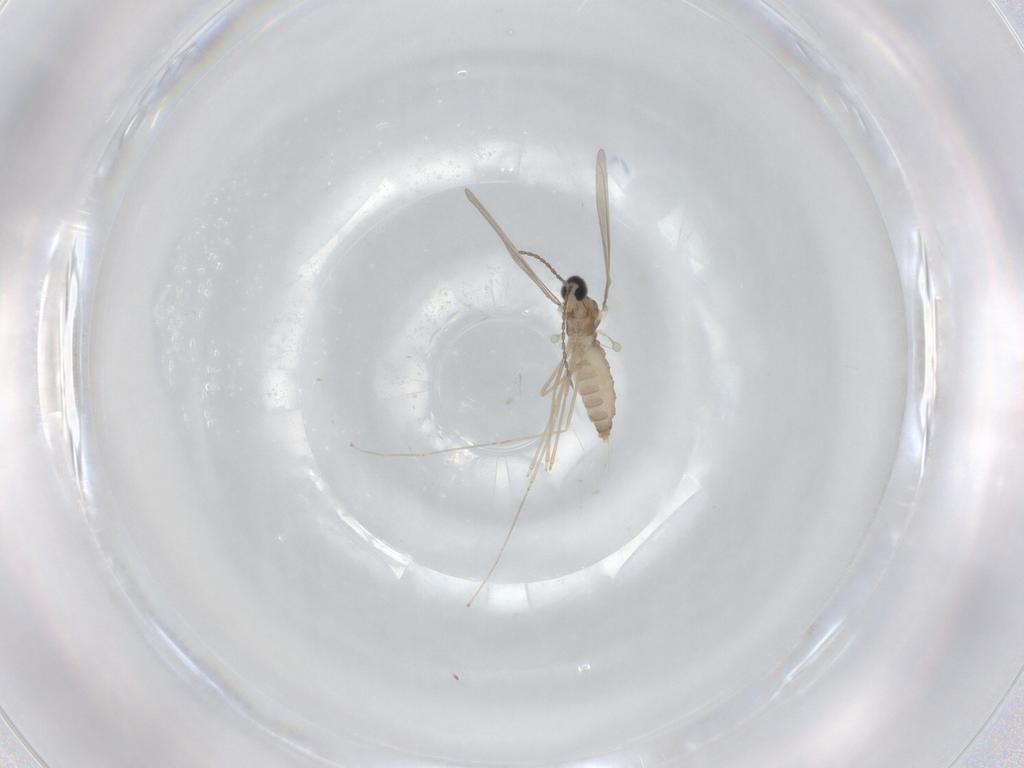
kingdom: Animalia
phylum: Arthropoda
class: Insecta
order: Diptera
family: Cecidomyiidae
